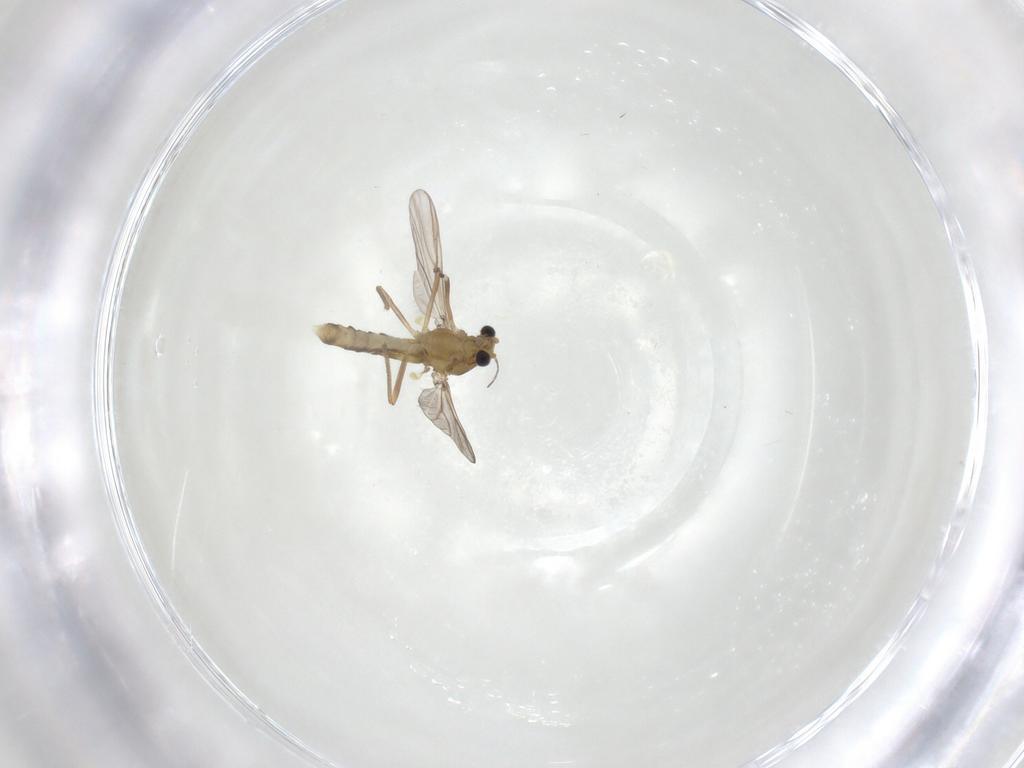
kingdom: Animalia
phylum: Arthropoda
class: Insecta
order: Diptera
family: Chironomidae
